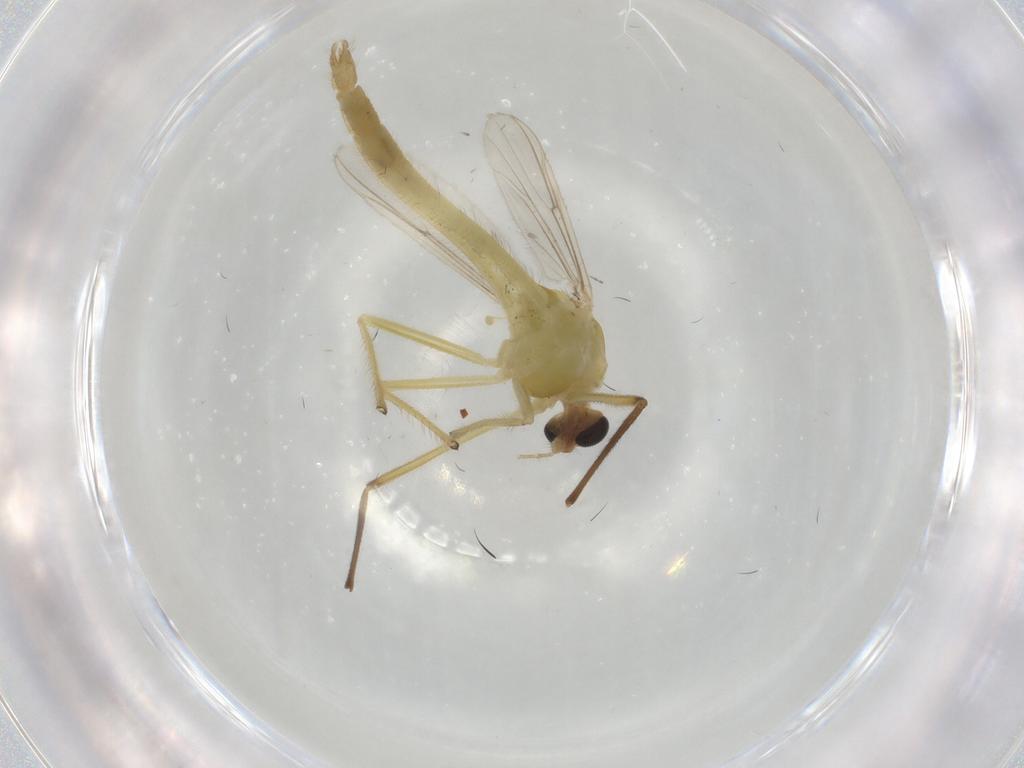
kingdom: Animalia
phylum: Arthropoda
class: Insecta
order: Diptera
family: Chironomidae
